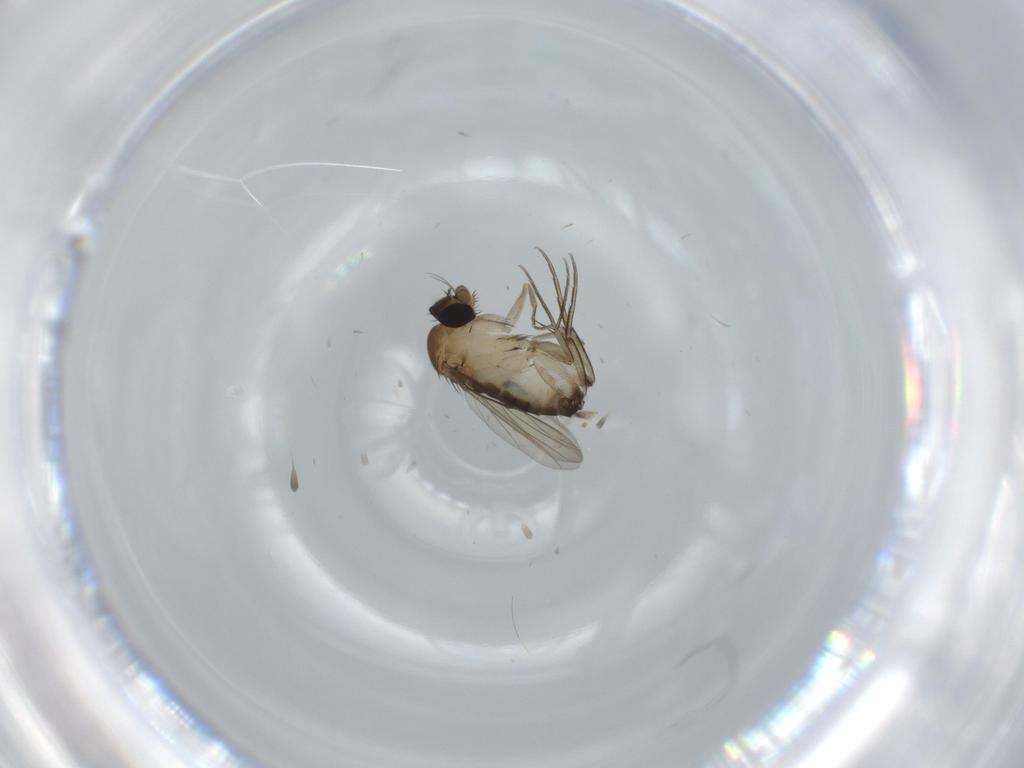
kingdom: Animalia
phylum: Arthropoda
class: Insecta
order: Diptera
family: Phoridae
